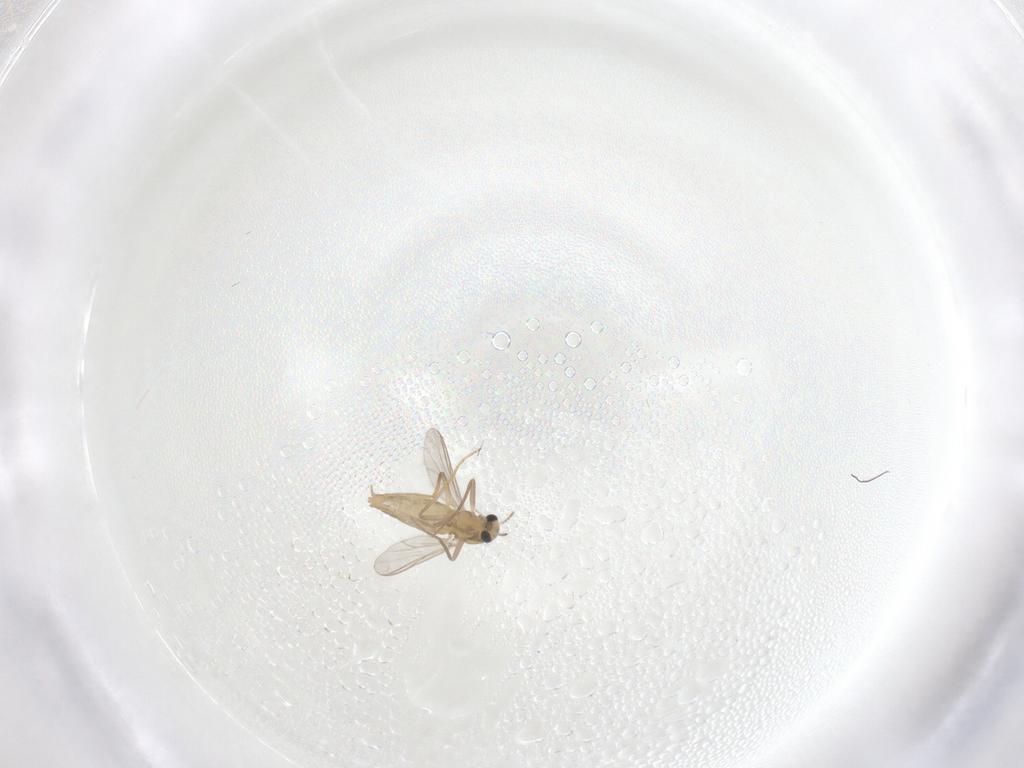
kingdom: Animalia
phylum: Arthropoda
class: Insecta
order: Diptera
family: Chironomidae
